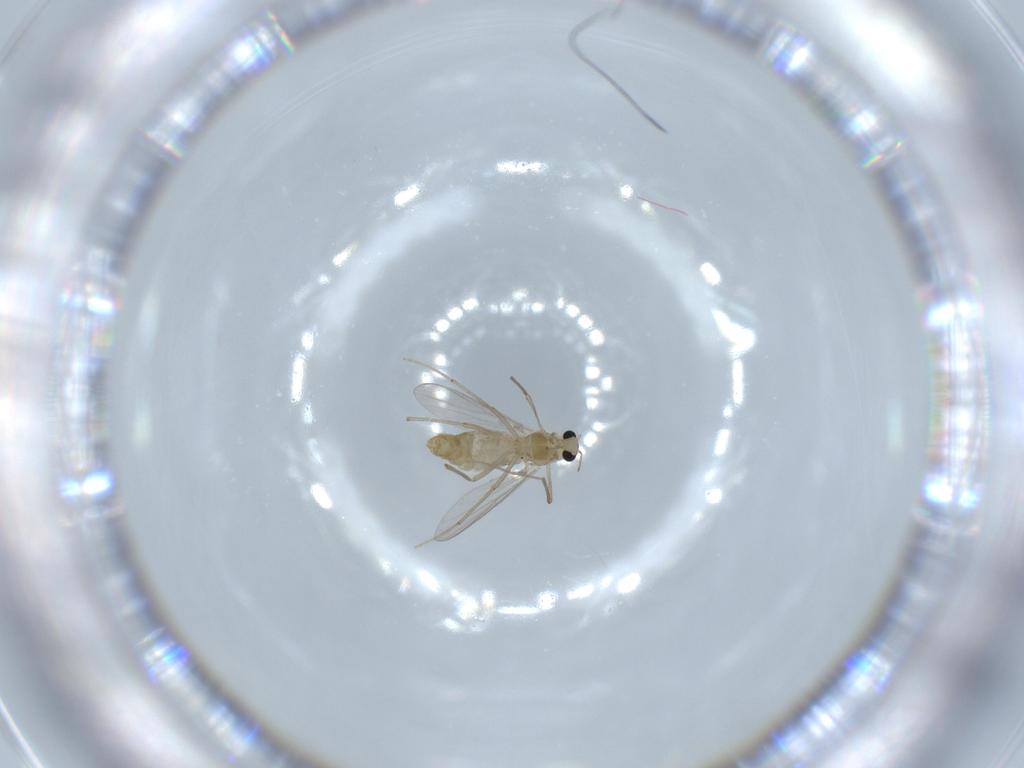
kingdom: Animalia
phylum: Arthropoda
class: Insecta
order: Diptera
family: Chironomidae
